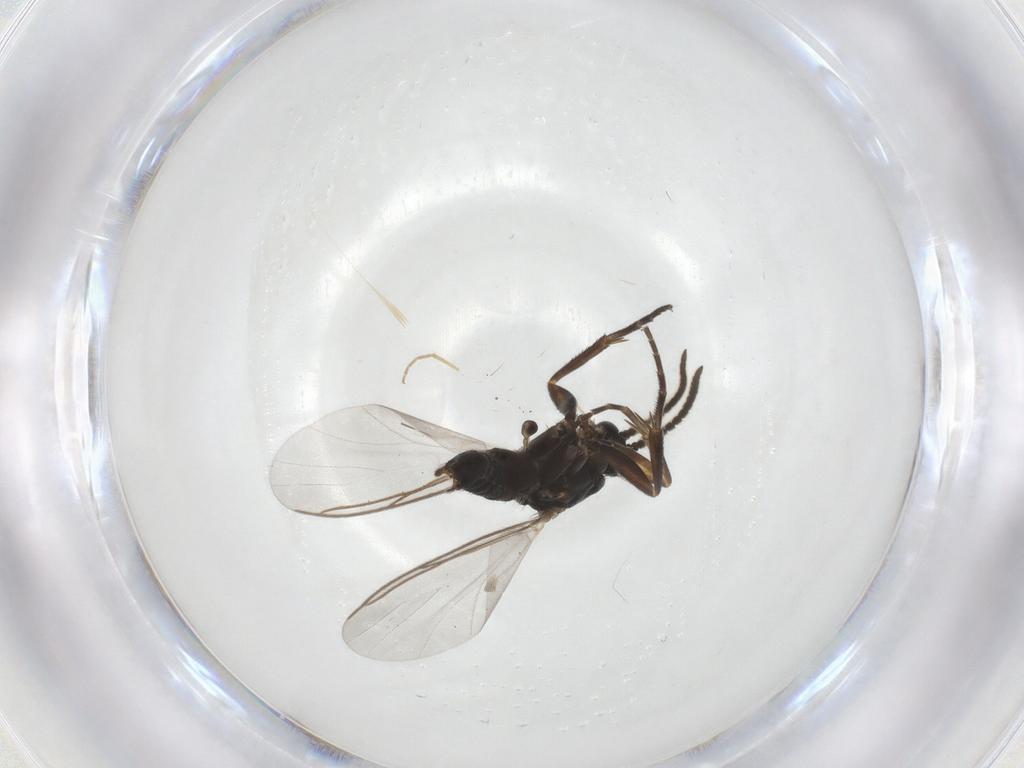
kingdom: Animalia
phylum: Arthropoda
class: Insecta
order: Diptera
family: Mycetophilidae
